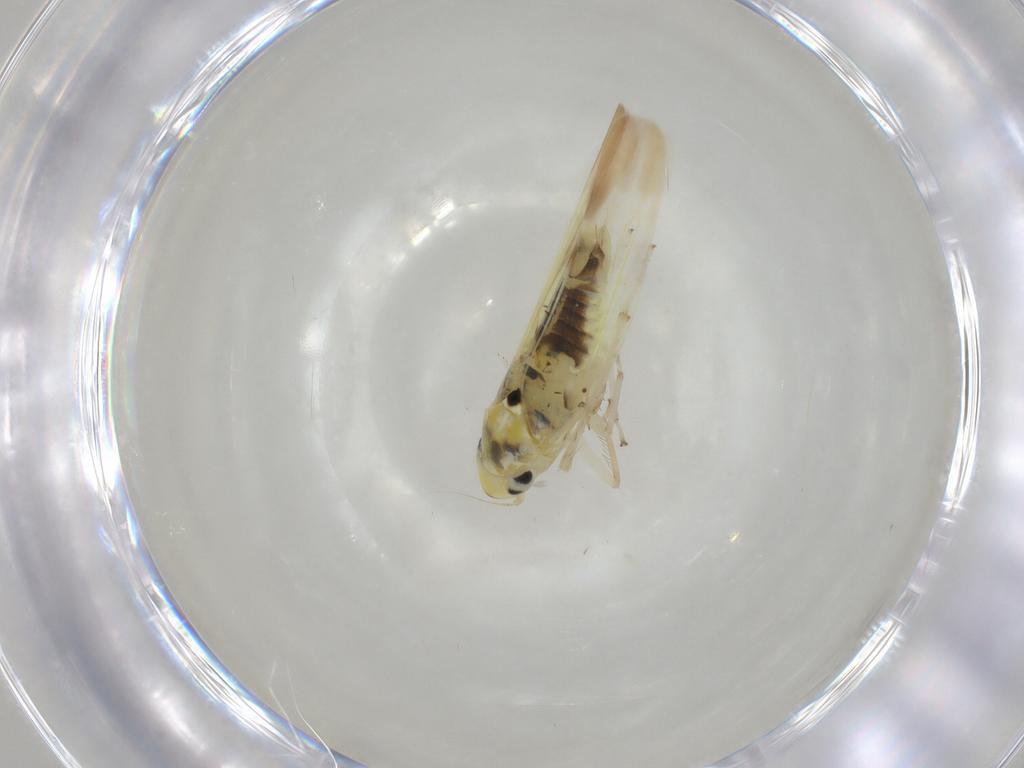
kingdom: Animalia
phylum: Arthropoda
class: Insecta
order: Hemiptera
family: Cicadellidae
